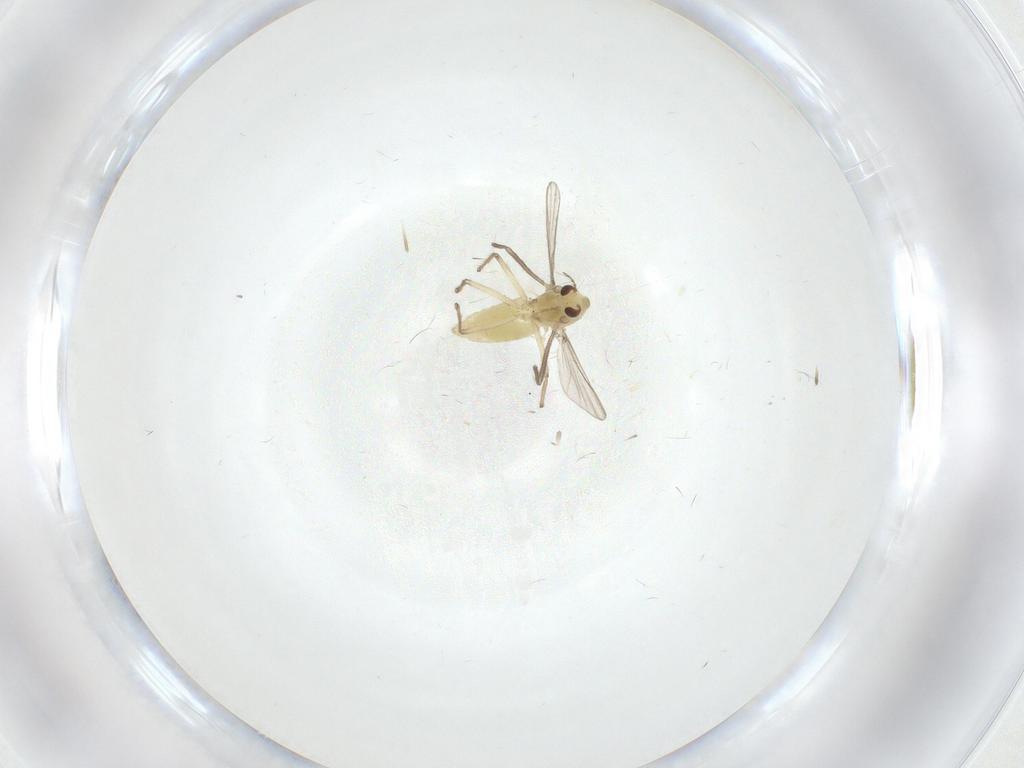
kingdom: Animalia
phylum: Arthropoda
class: Insecta
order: Diptera
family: Chironomidae
